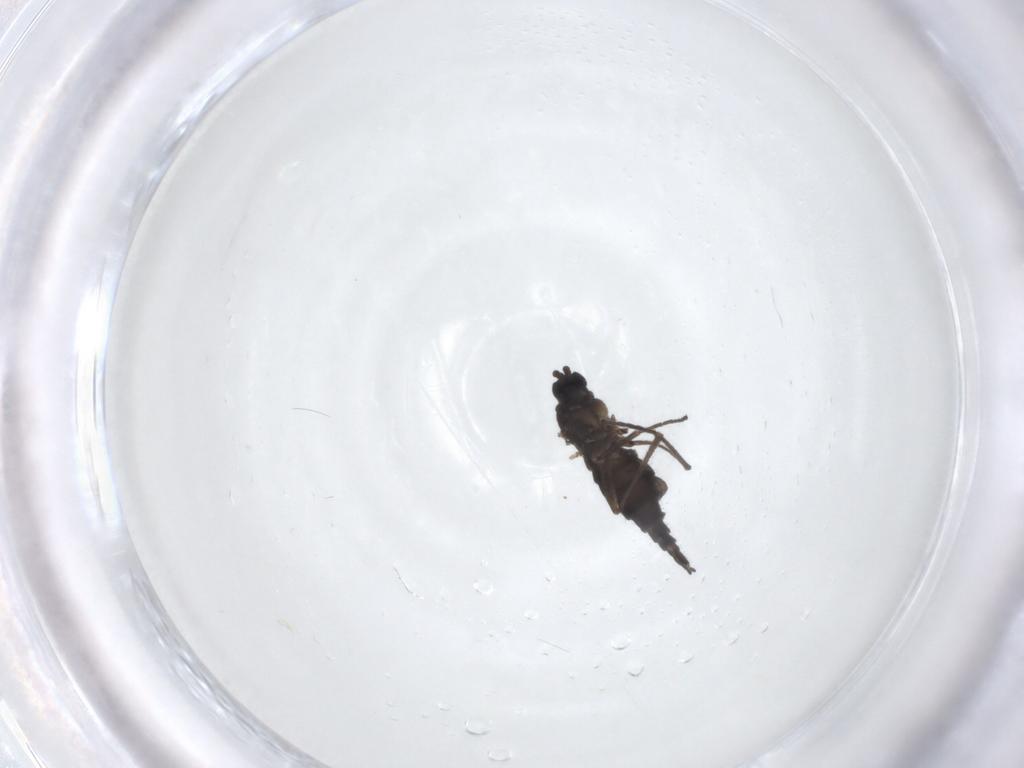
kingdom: Animalia
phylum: Arthropoda
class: Insecta
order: Diptera
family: Sciaridae
